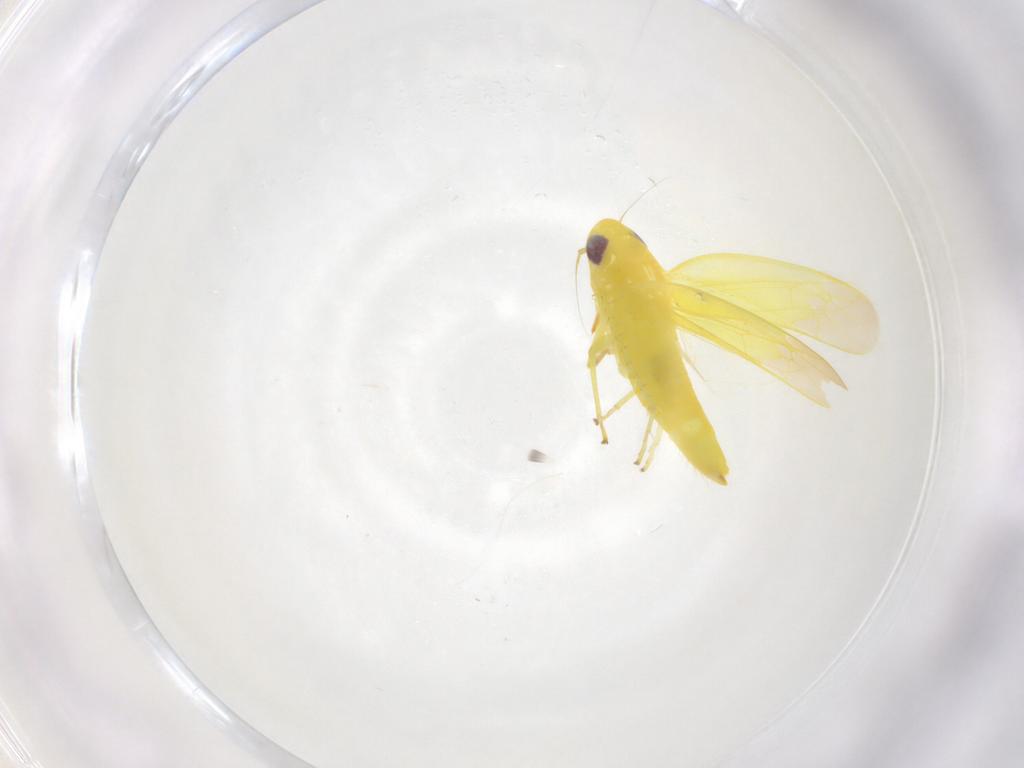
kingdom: Animalia
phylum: Arthropoda
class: Insecta
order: Hemiptera
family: Cicadellidae
